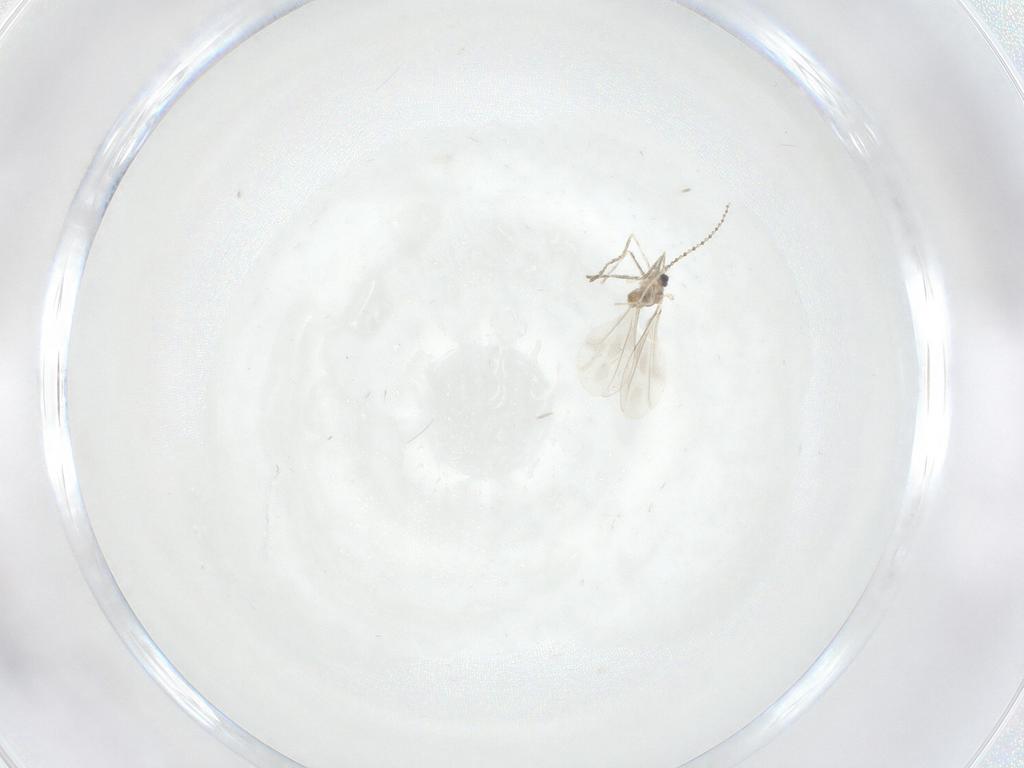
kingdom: Animalia
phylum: Arthropoda
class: Insecta
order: Diptera
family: Cecidomyiidae
